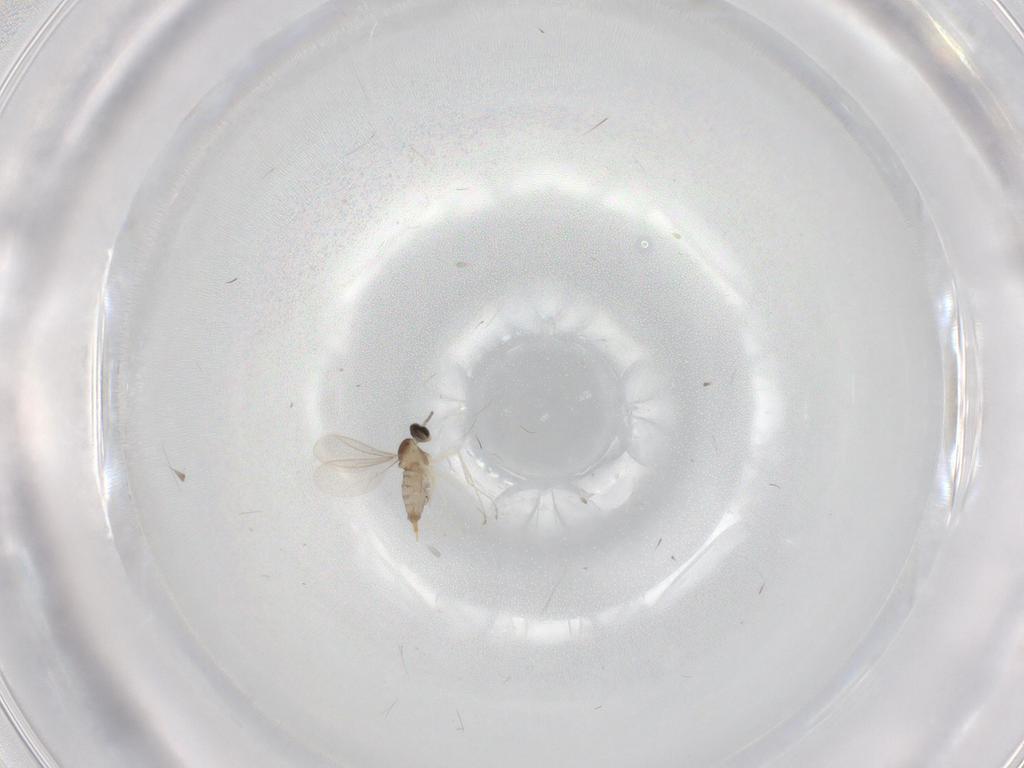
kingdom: Animalia
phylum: Arthropoda
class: Insecta
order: Diptera
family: Cecidomyiidae
